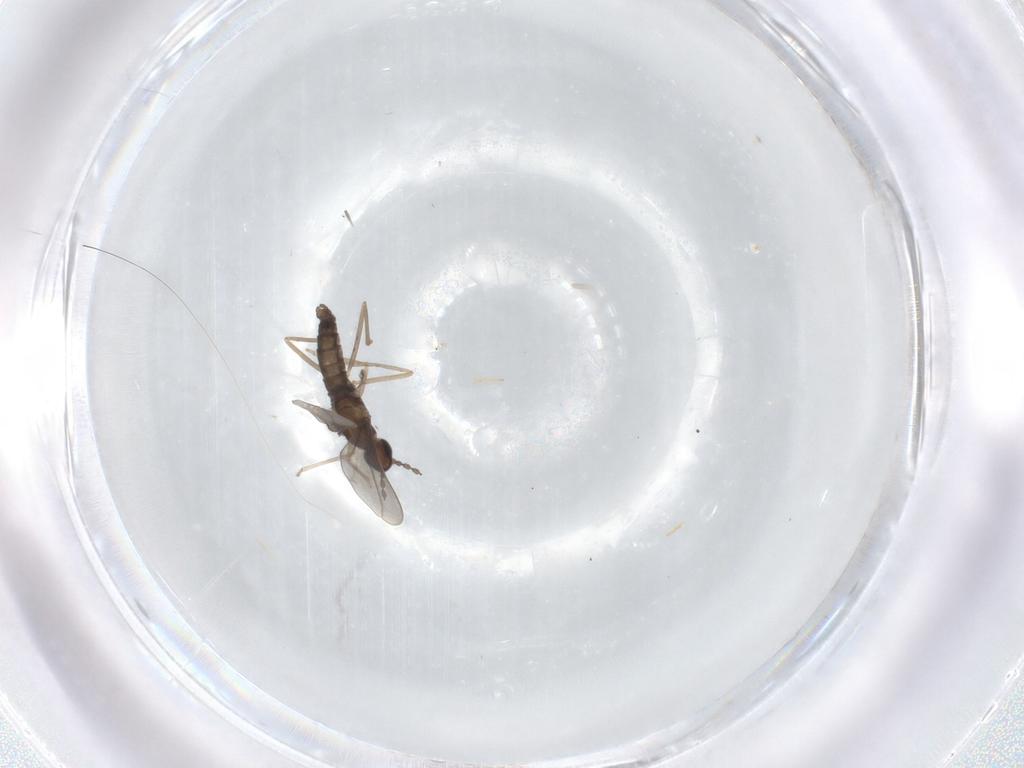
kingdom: Animalia
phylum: Arthropoda
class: Insecta
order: Diptera
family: Cecidomyiidae
